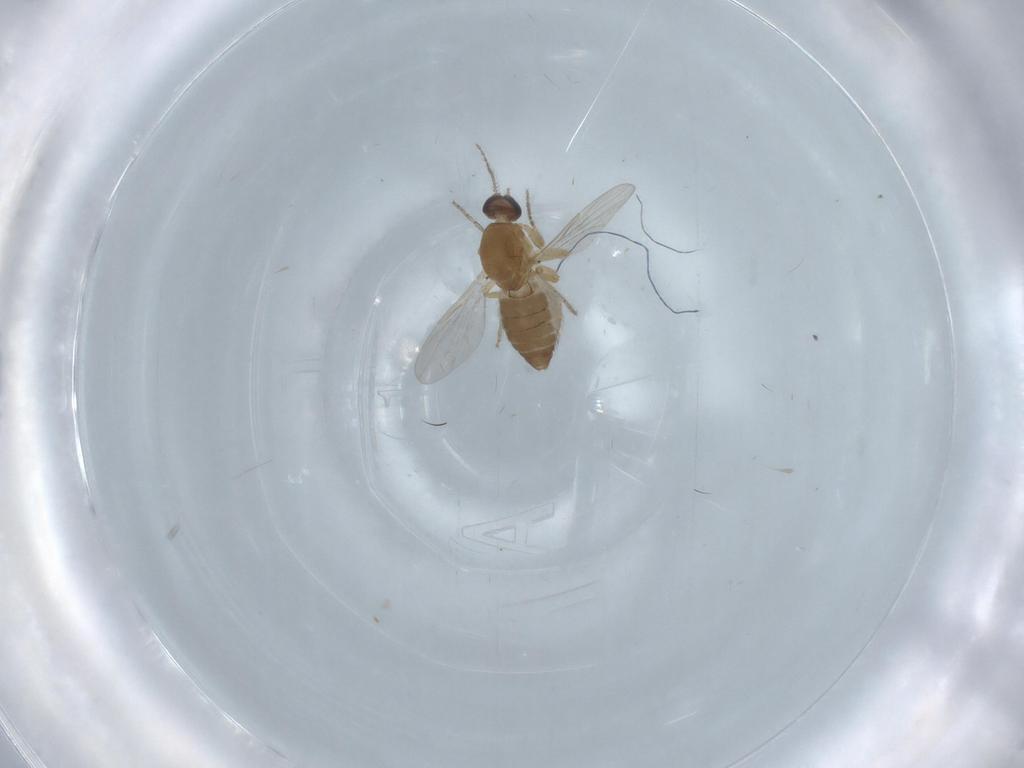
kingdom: Animalia
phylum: Arthropoda
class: Insecta
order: Diptera
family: Ceratopogonidae
